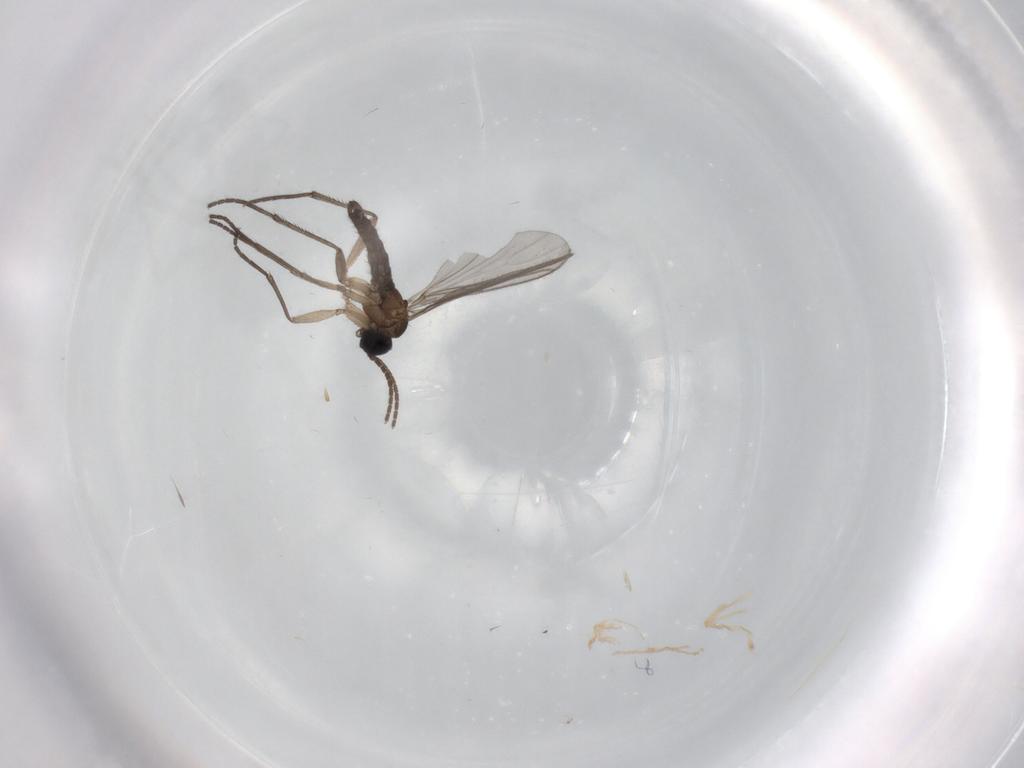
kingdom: Animalia
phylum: Arthropoda
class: Insecta
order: Diptera
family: Sciaridae
